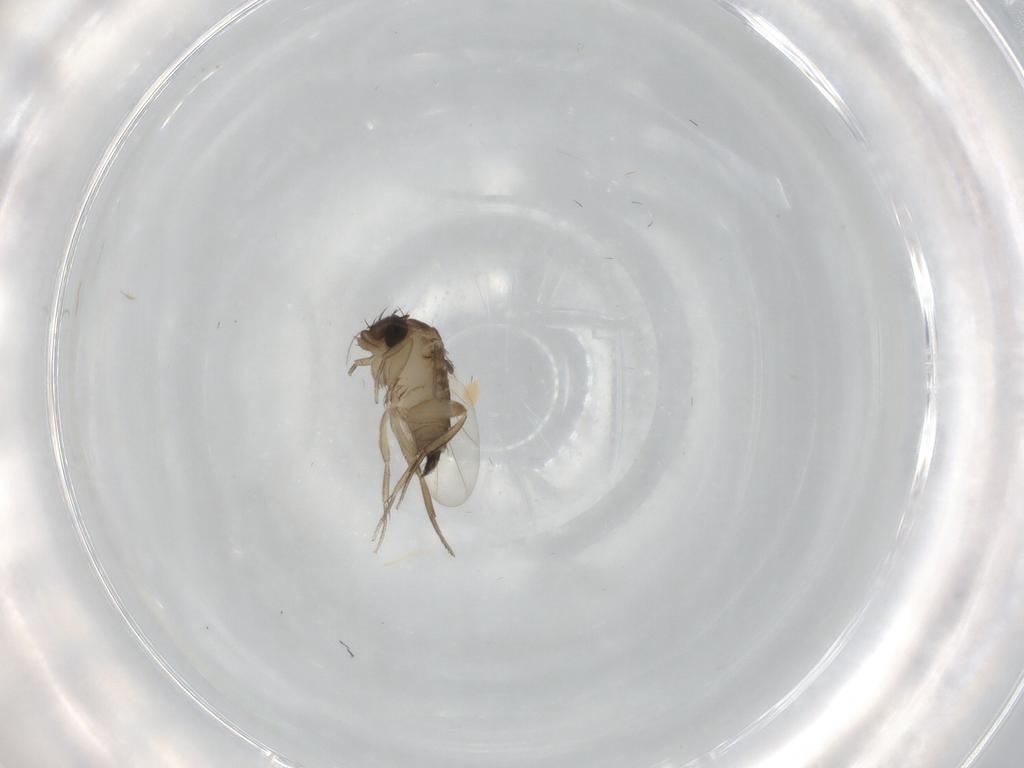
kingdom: Animalia
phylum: Arthropoda
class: Insecta
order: Diptera
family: Phoridae
